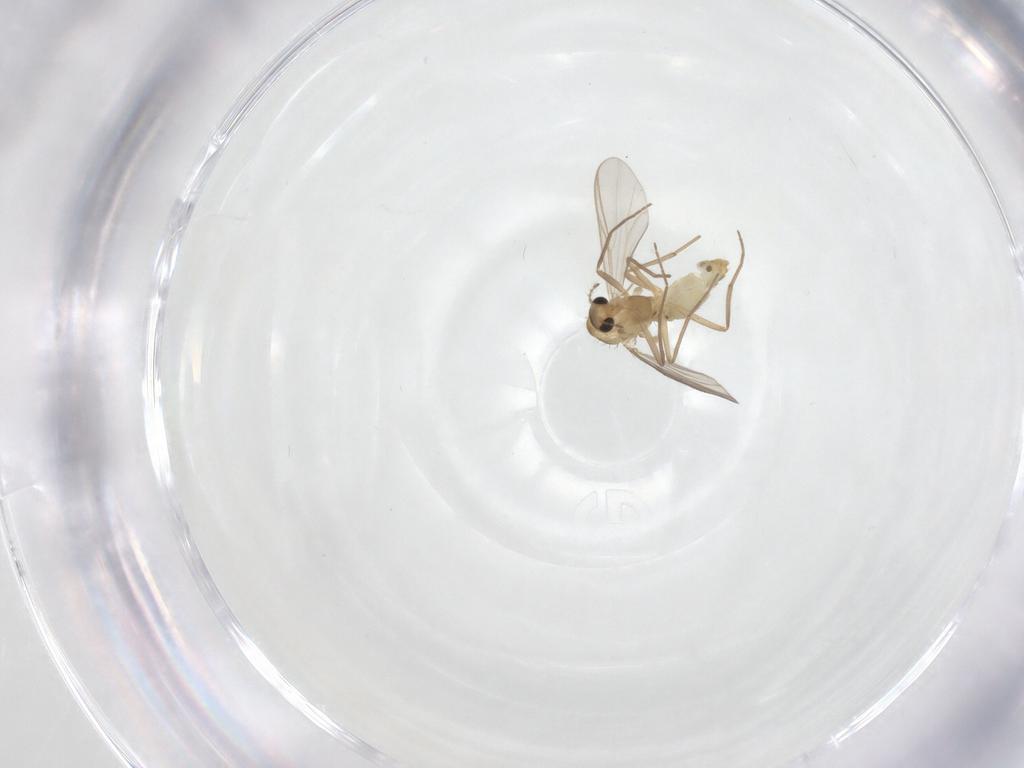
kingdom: Animalia
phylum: Arthropoda
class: Insecta
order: Diptera
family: Chironomidae
